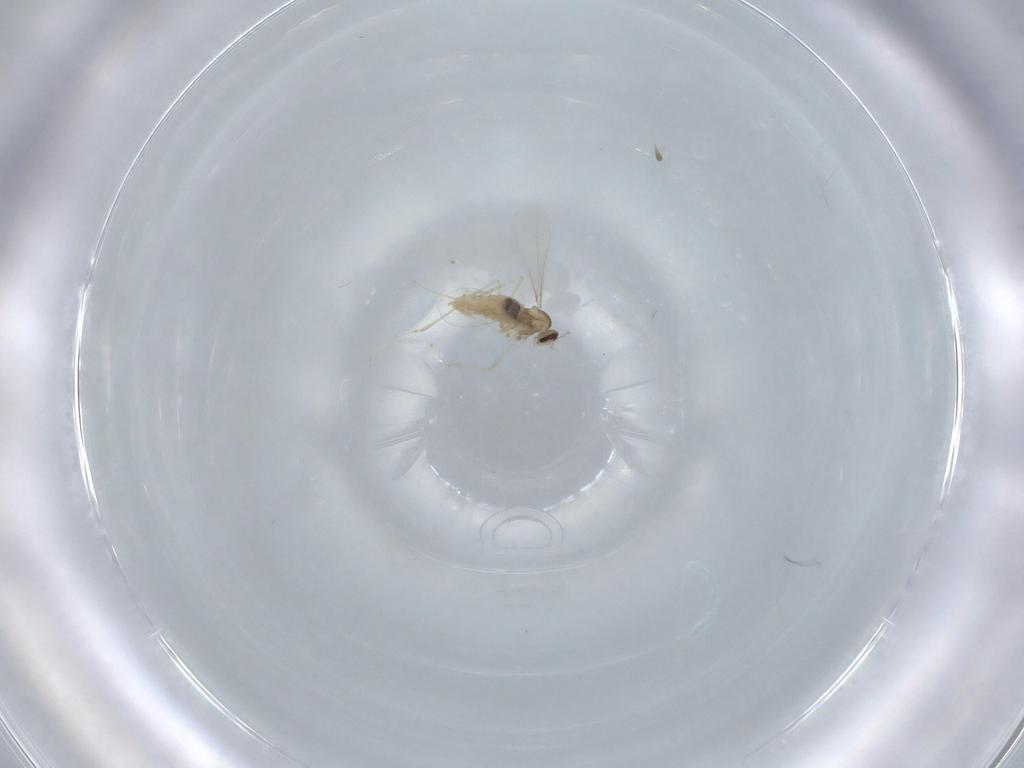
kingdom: Animalia
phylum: Arthropoda
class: Insecta
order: Diptera
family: Cecidomyiidae
